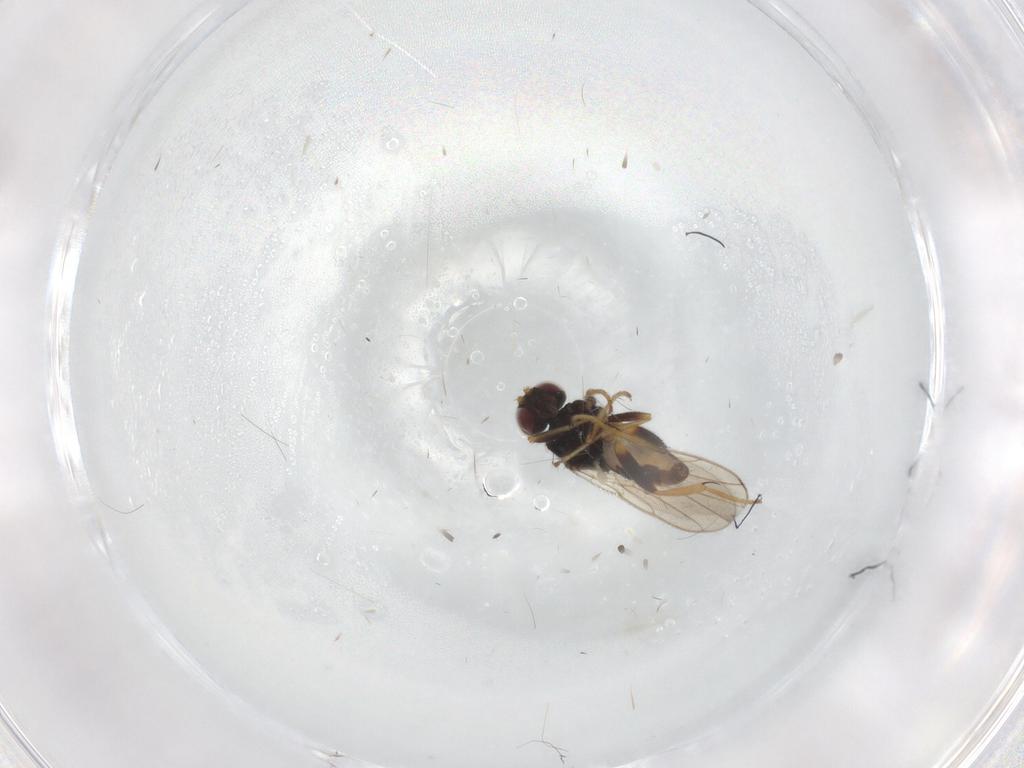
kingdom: Animalia
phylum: Arthropoda
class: Insecta
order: Diptera
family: Chloropidae
